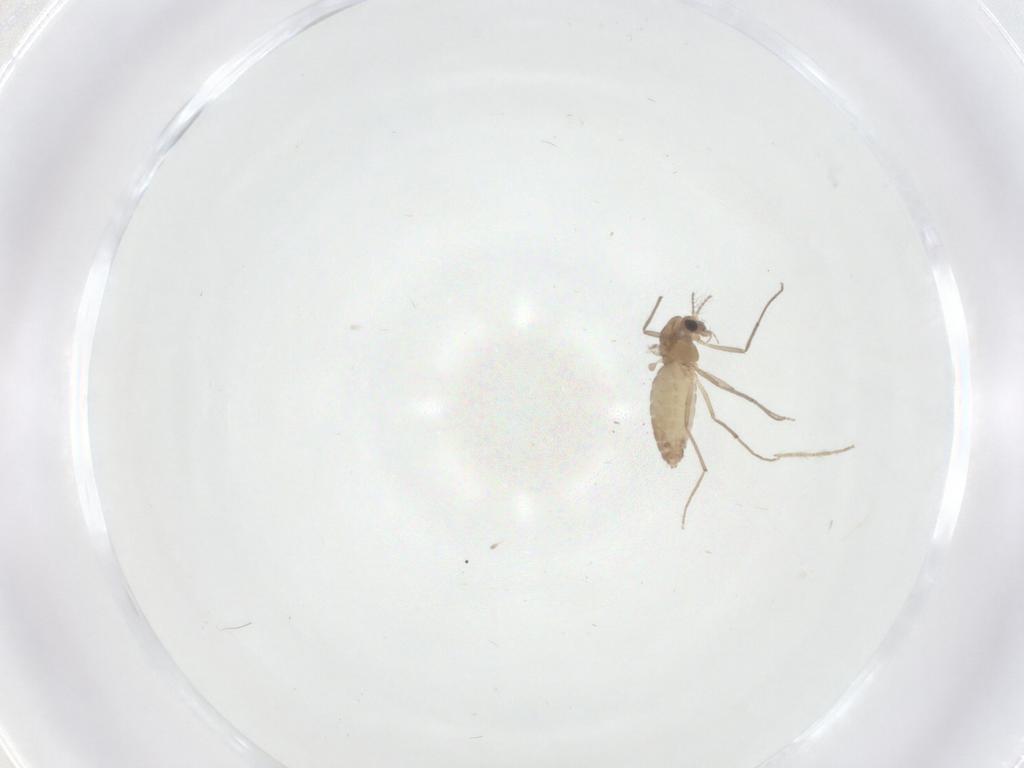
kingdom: Animalia
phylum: Arthropoda
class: Insecta
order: Diptera
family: Chironomidae
